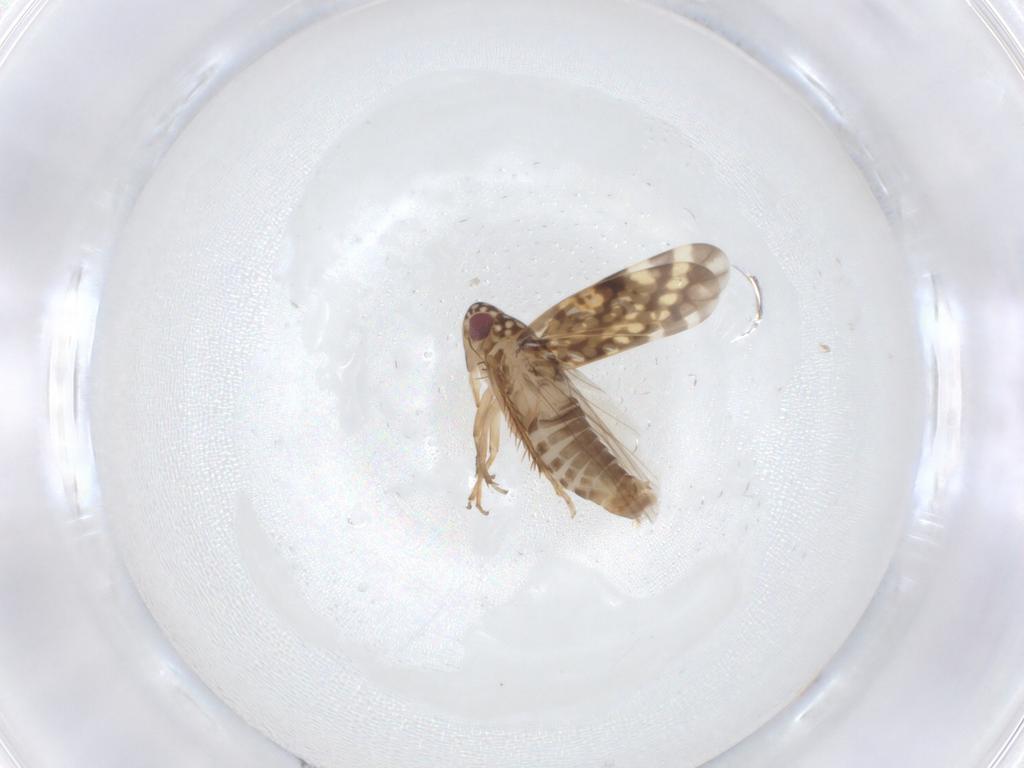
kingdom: Animalia
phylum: Arthropoda
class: Insecta
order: Hemiptera
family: Cicadellidae
